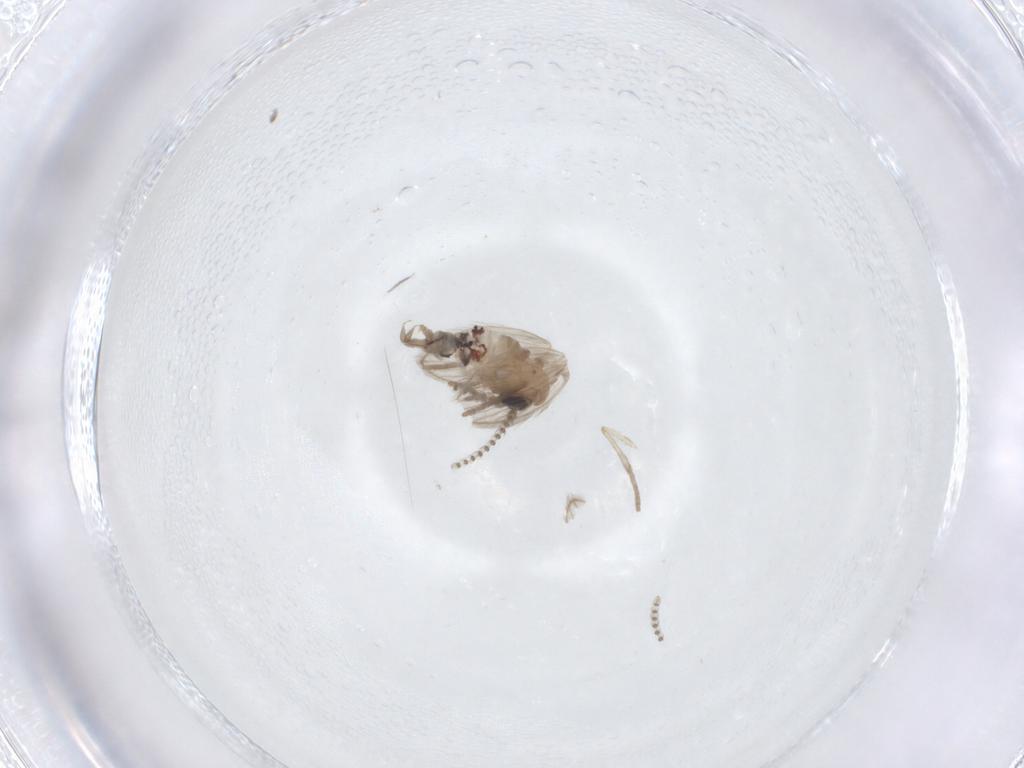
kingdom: Animalia
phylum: Arthropoda
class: Insecta
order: Diptera
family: Psychodidae
